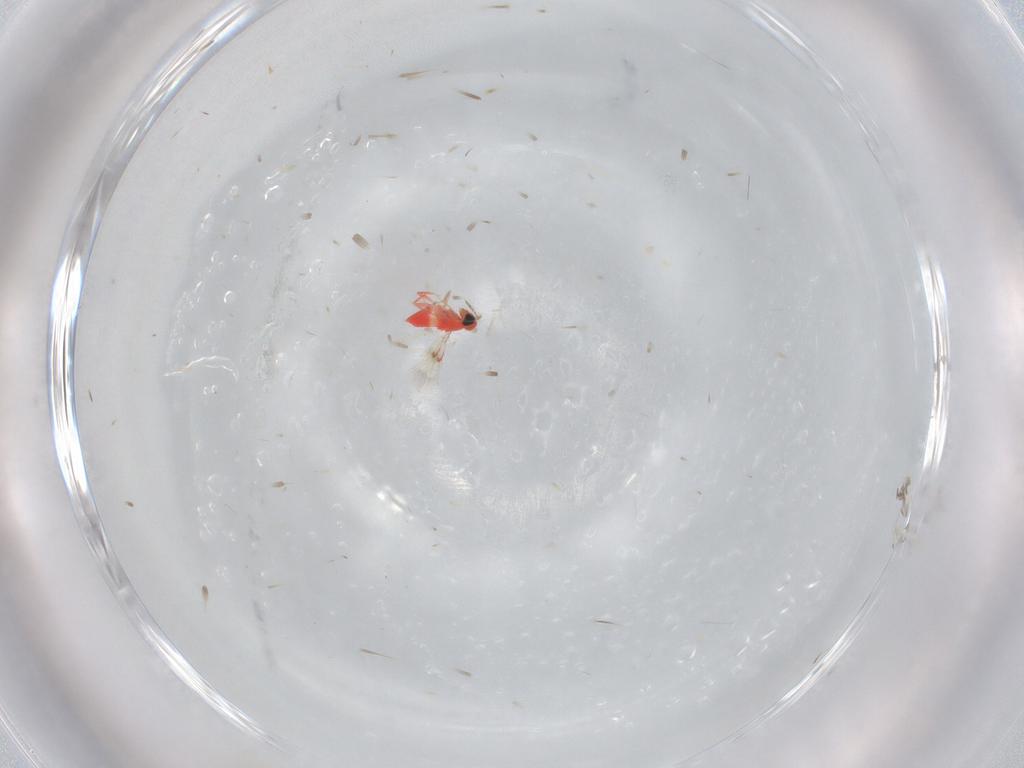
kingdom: Animalia
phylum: Arthropoda
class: Insecta
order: Hymenoptera
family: Trichogrammatidae
